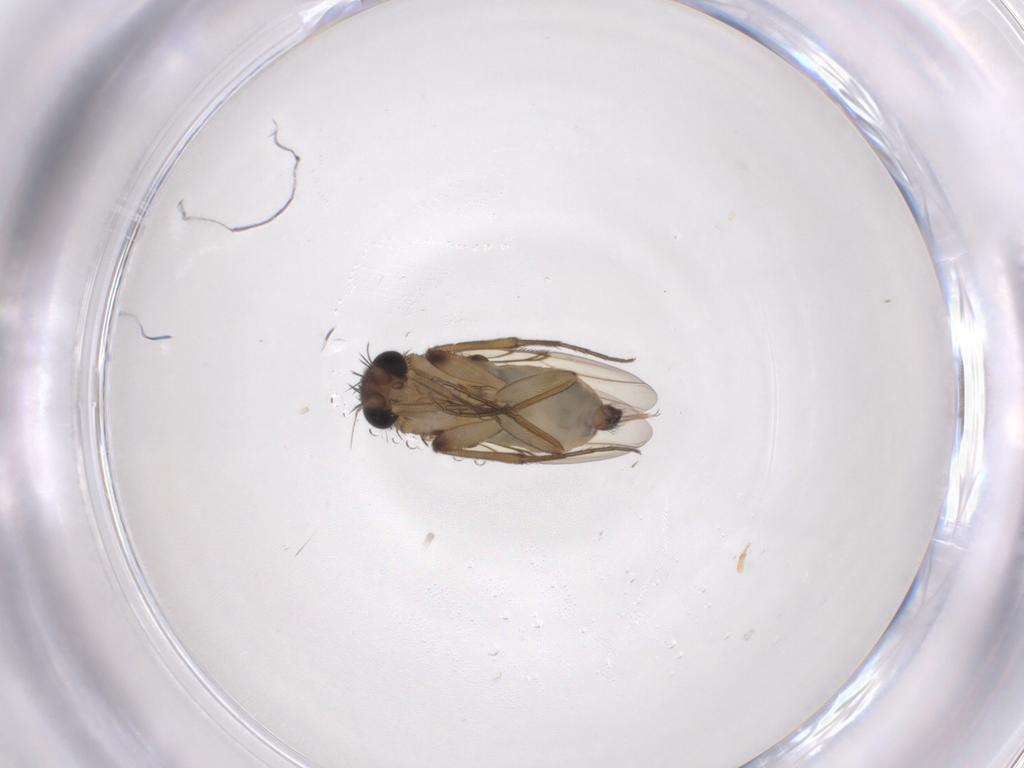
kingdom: Animalia
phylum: Arthropoda
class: Insecta
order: Diptera
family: Phoridae
